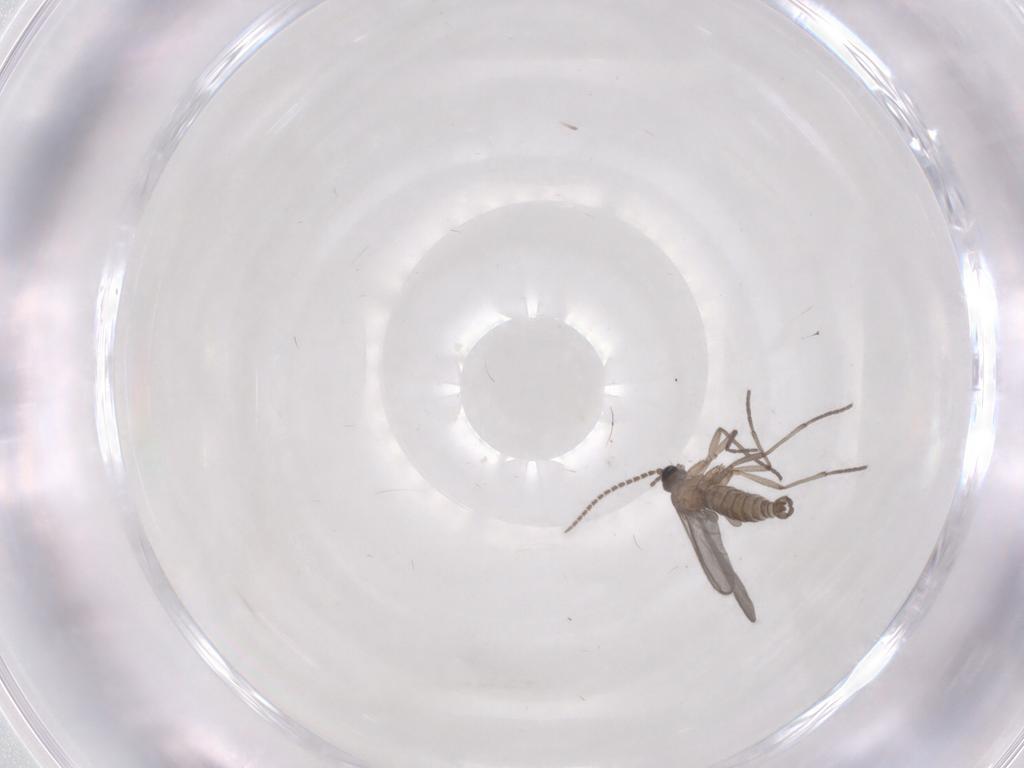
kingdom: Animalia
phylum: Arthropoda
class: Insecta
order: Diptera
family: Sciaridae
